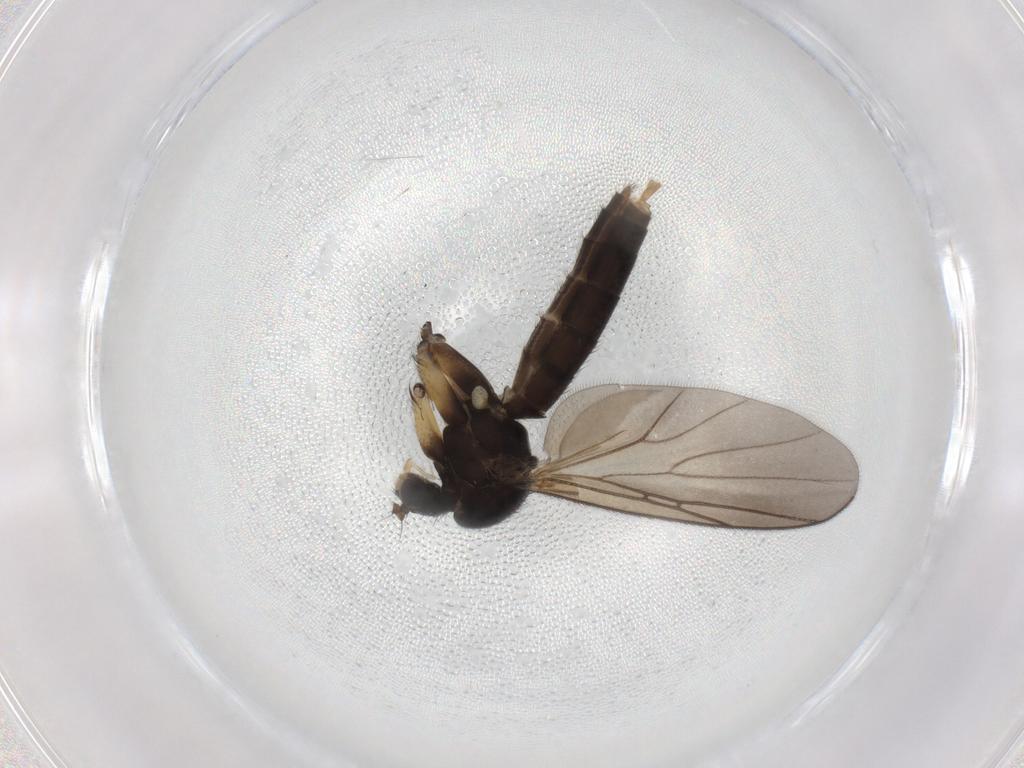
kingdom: Animalia
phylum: Arthropoda
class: Insecta
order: Diptera
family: Mycetophilidae
